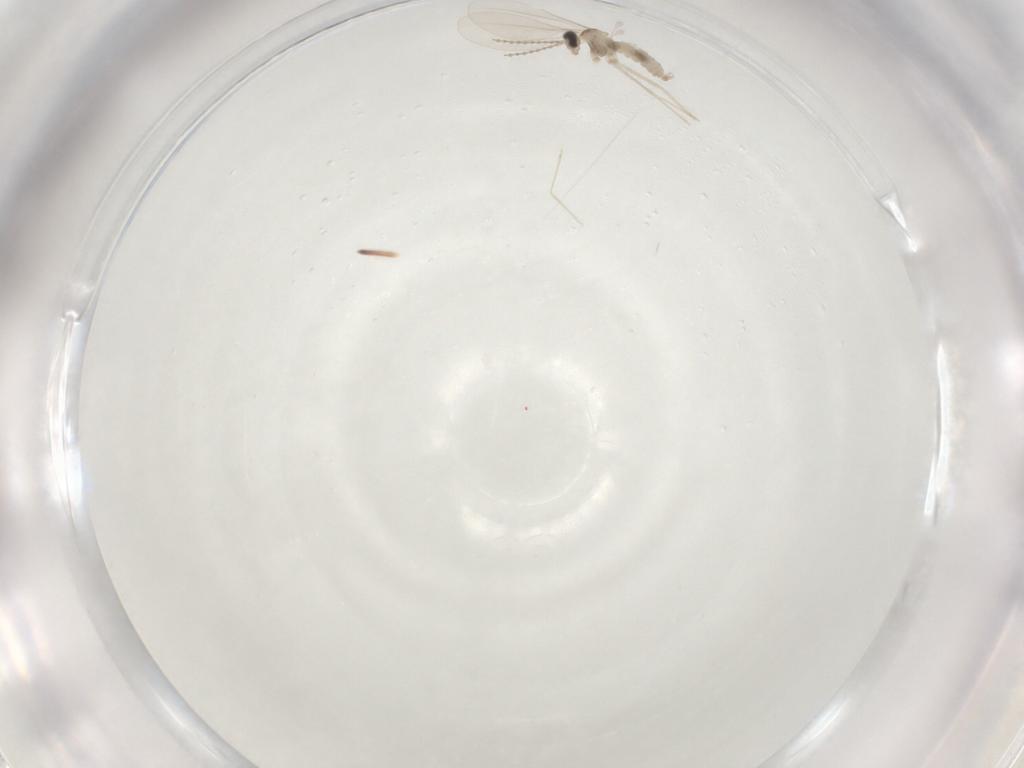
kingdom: Animalia
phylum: Arthropoda
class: Insecta
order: Diptera
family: Cecidomyiidae
